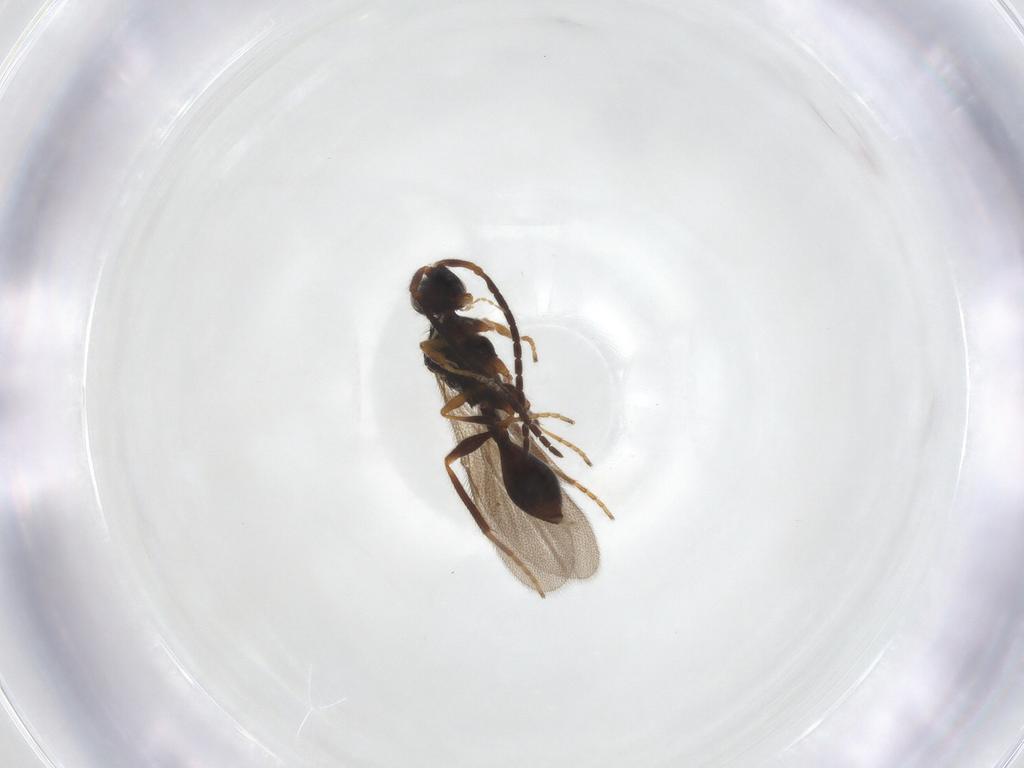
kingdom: Animalia
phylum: Arthropoda
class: Insecta
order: Hymenoptera
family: Diapriidae
